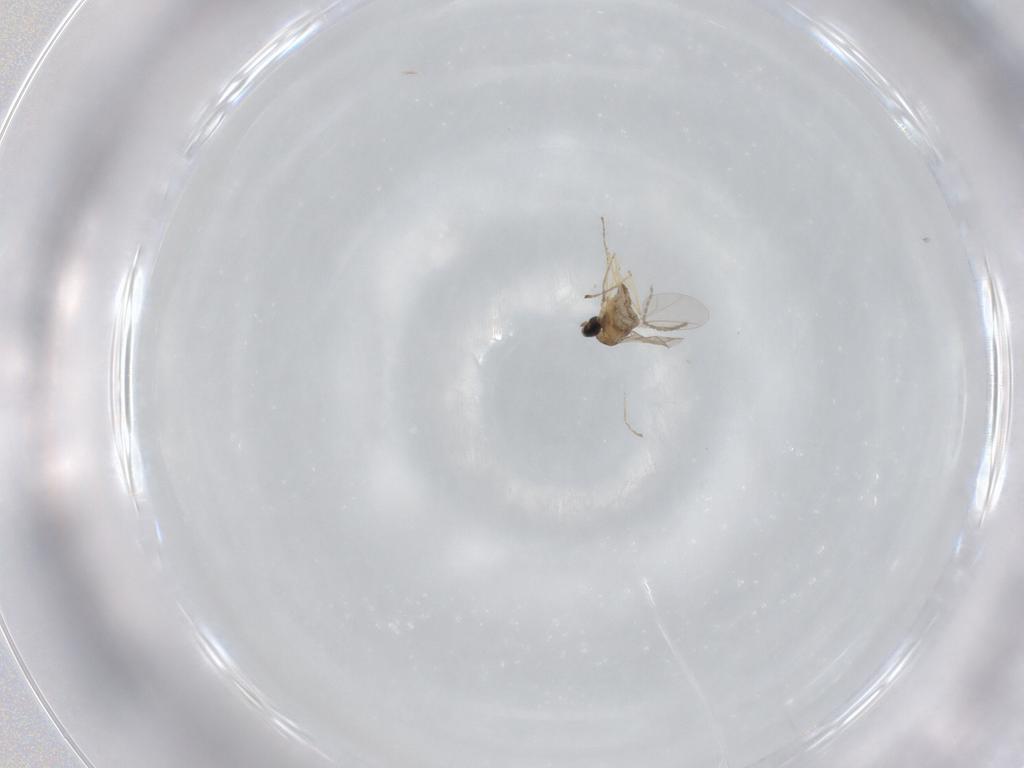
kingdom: Animalia
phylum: Arthropoda
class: Insecta
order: Diptera
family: Cecidomyiidae
